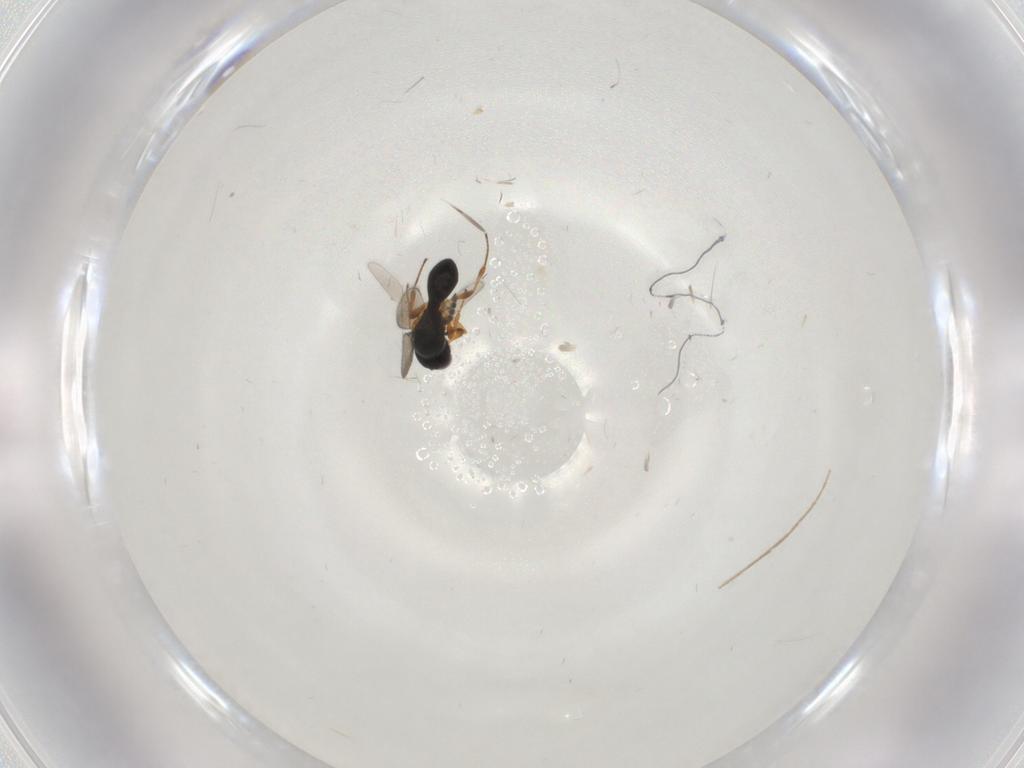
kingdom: Animalia
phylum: Arthropoda
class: Insecta
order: Hymenoptera
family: Platygastridae
